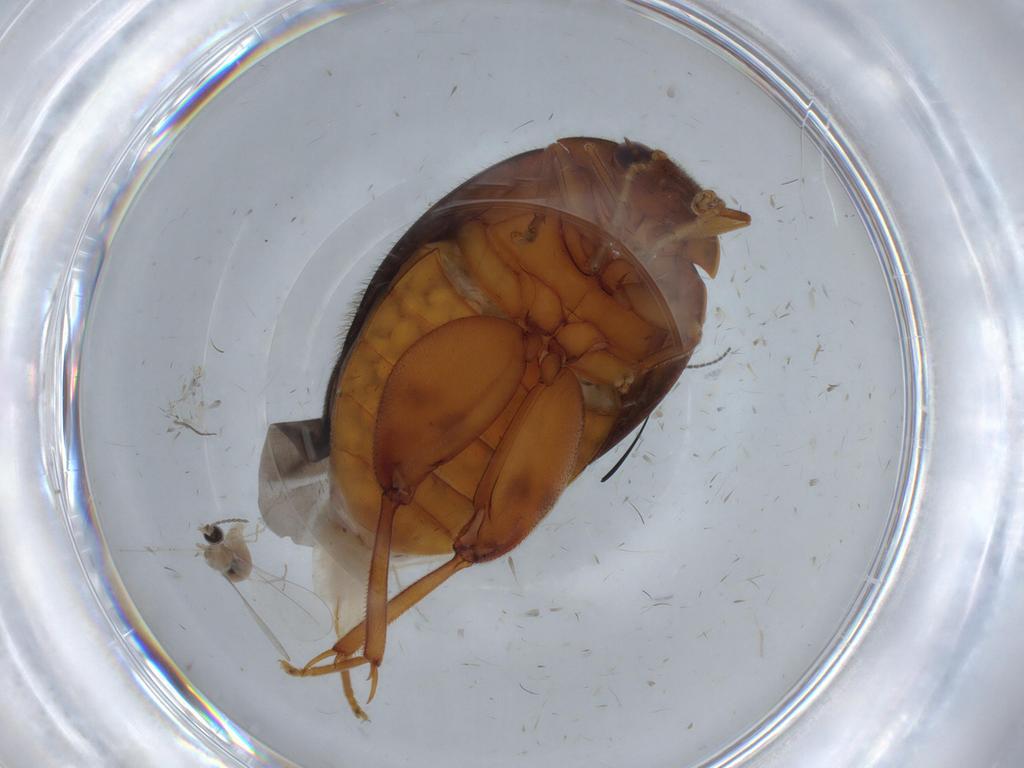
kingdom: Animalia
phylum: Arthropoda
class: Insecta
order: Coleoptera
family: Scirtidae
